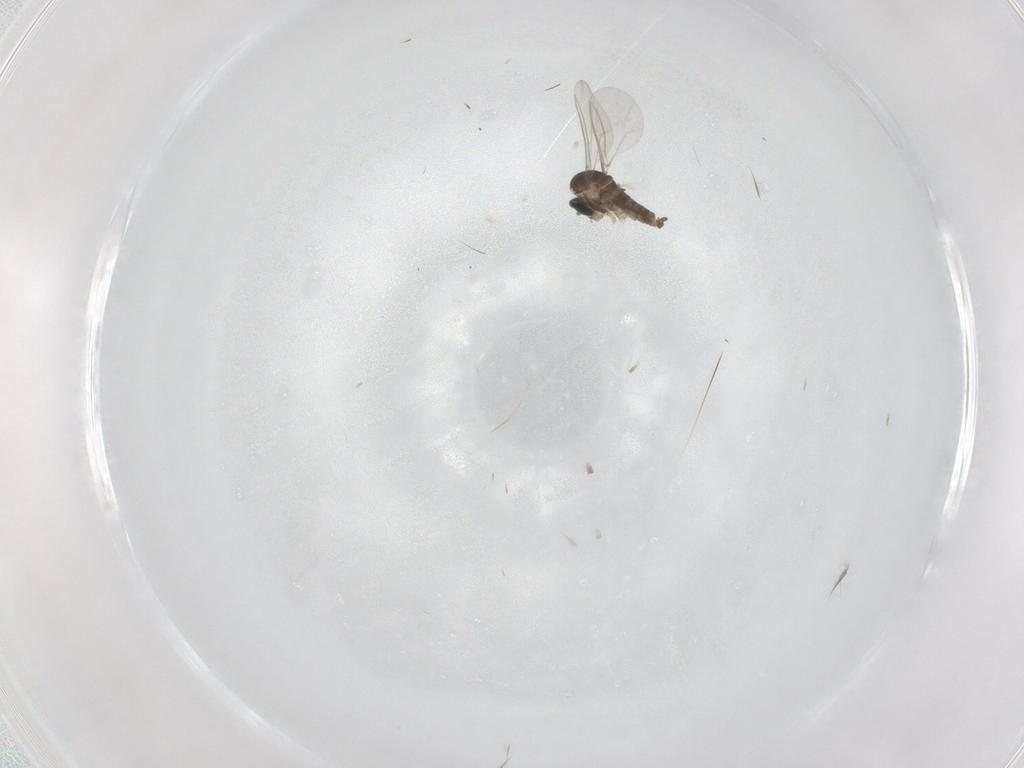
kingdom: Animalia
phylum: Arthropoda
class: Insecta
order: Diptera
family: Cecidomyiidae
